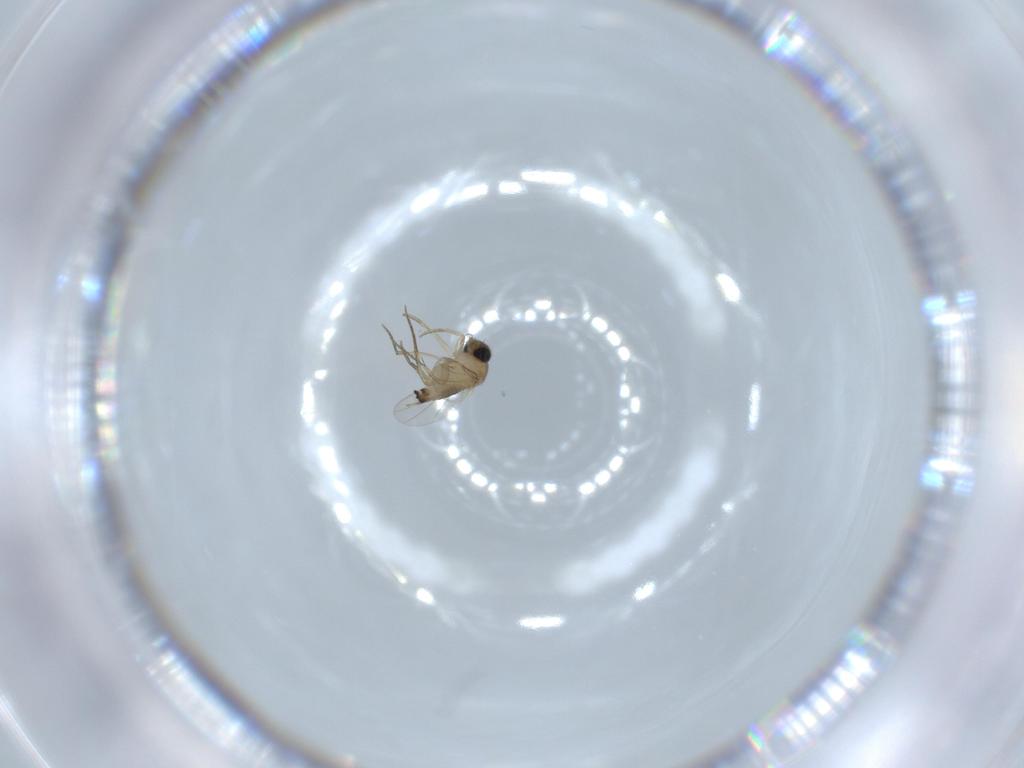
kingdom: Animalia
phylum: Arthropoda
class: Insecta
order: Diptera
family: Phoridae
